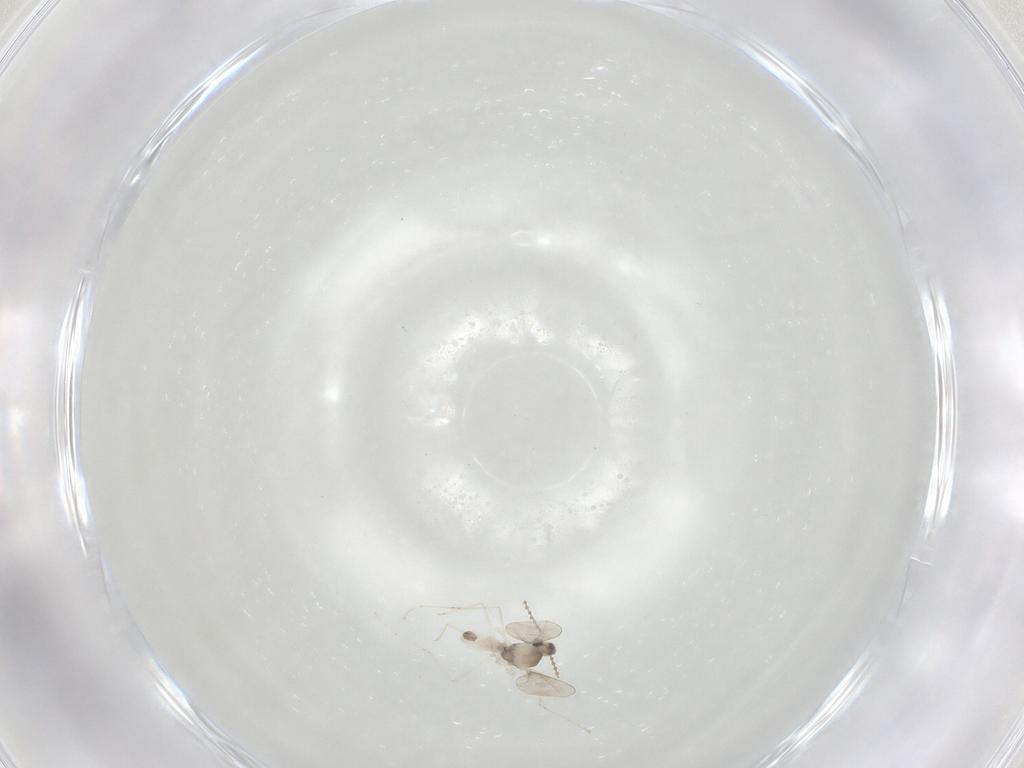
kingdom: Animalia
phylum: Arthropoda
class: Insecta
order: Diptera
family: Cecidomyiidae
